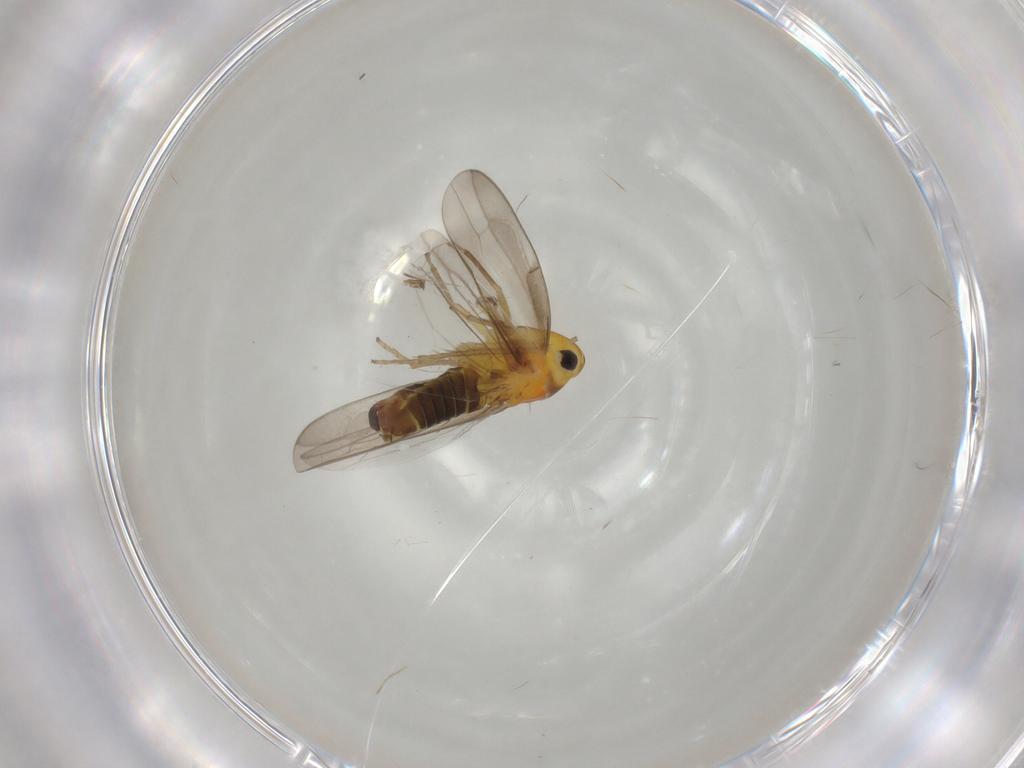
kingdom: Animalia
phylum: Arthropoda
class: Insecta
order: Hemiptera
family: Cicadellidae
